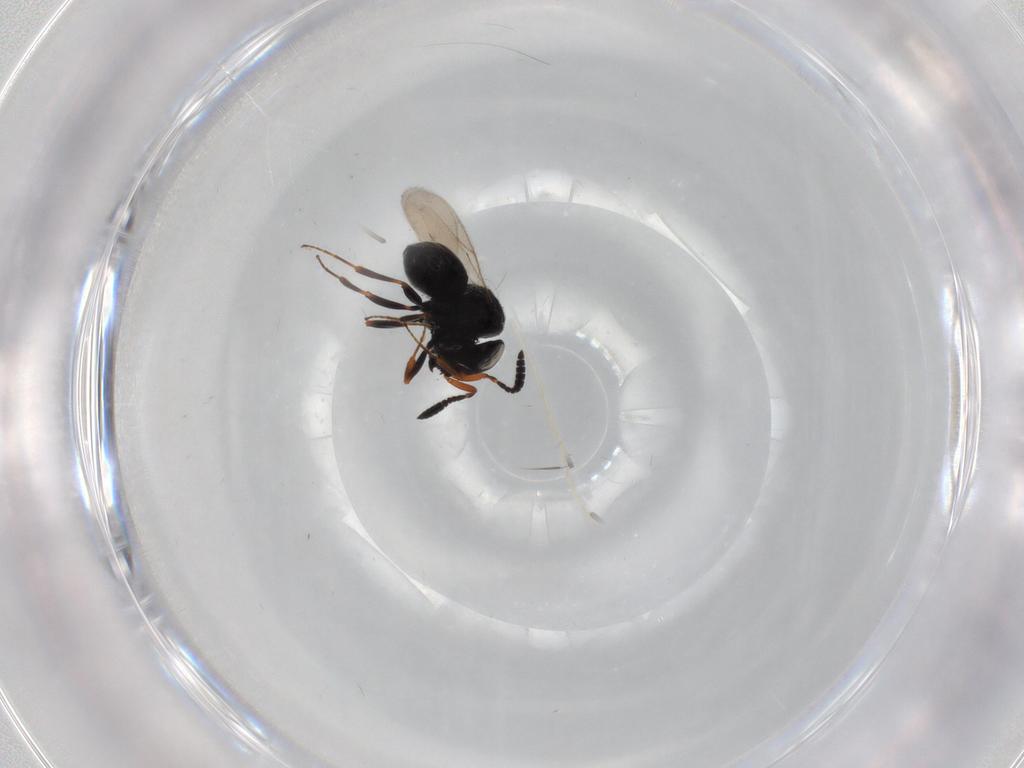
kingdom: Animalia
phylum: Arthropoda
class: Insecta
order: Hymenoptera
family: Scelionidae
